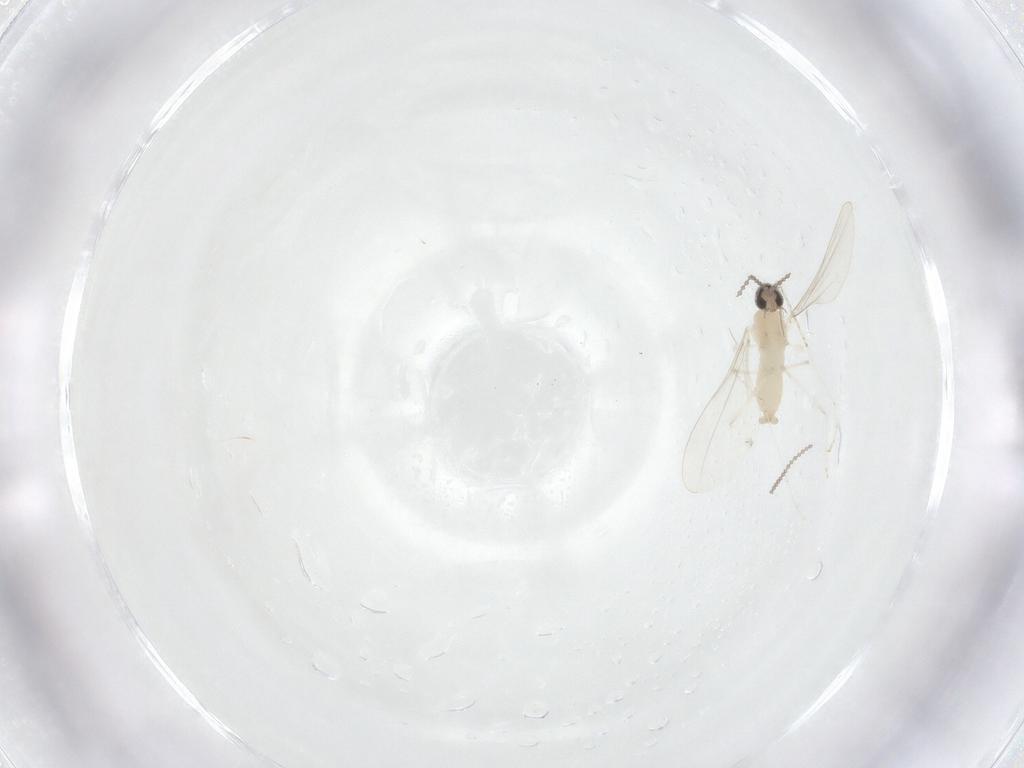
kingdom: Animalia
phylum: Arthropoda
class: Insecta
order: Diptera
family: Cecidomyiidae
